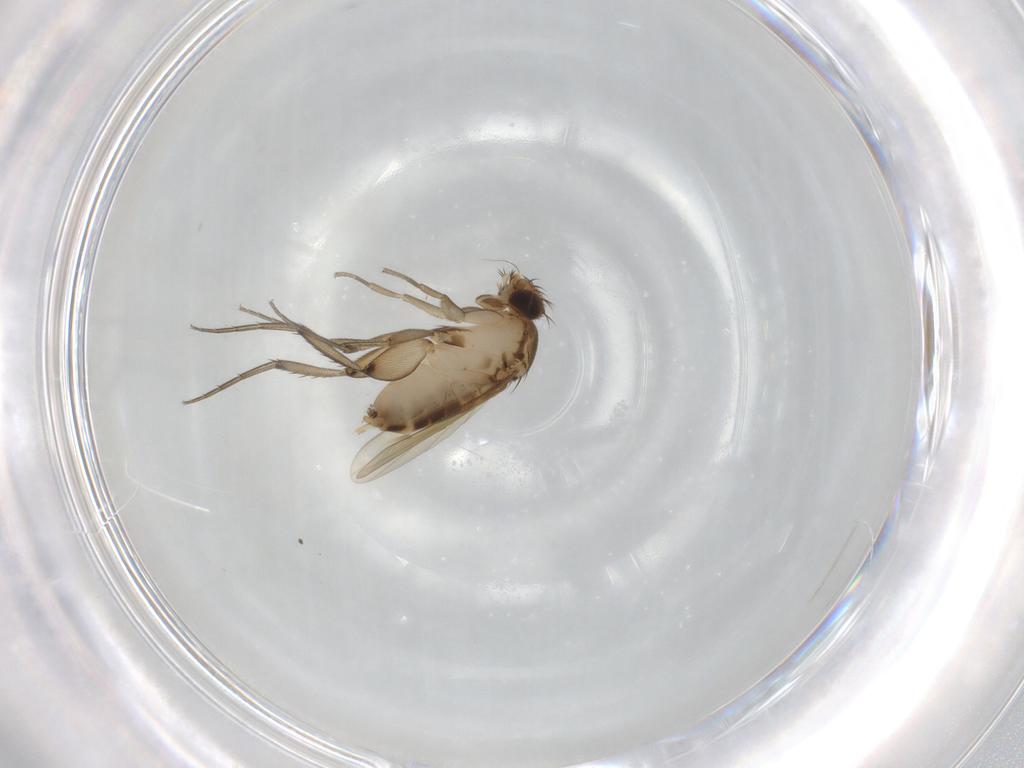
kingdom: Animalia
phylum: Arthropoda
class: Insecta
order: Diptera
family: Phoridae
